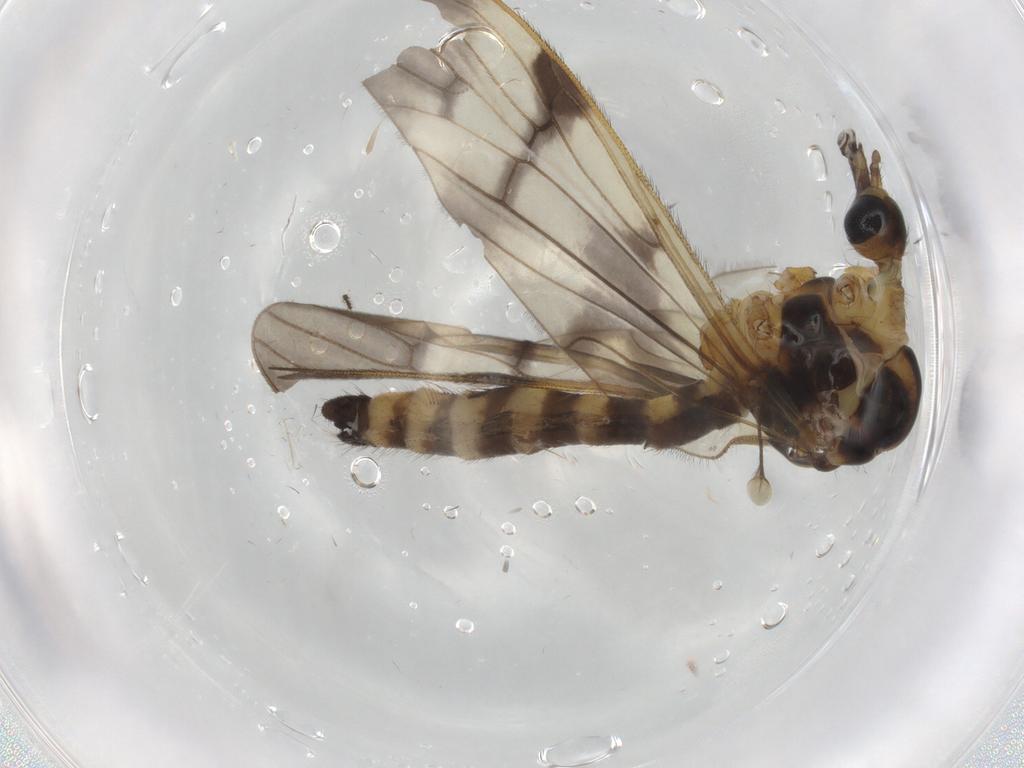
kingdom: Animalia
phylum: Arthropoda
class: Insecta
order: Diptera
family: Limoniidae
